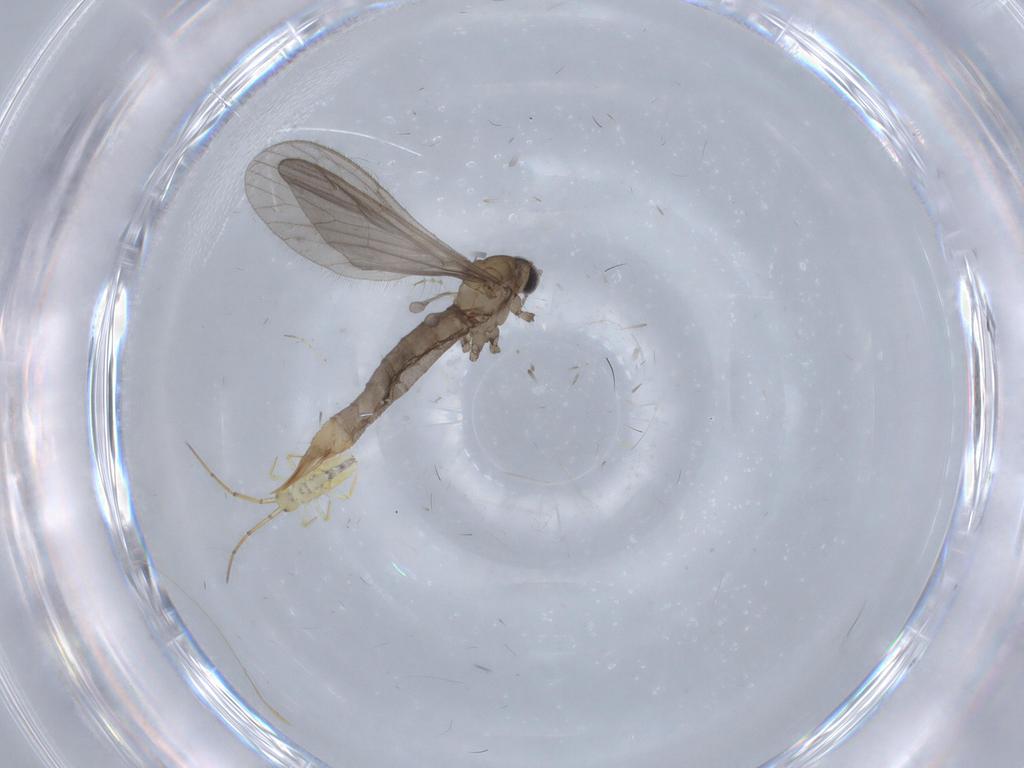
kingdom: Animalia
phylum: Arthropoda
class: Insecta
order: Diptera
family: Limoniidae
